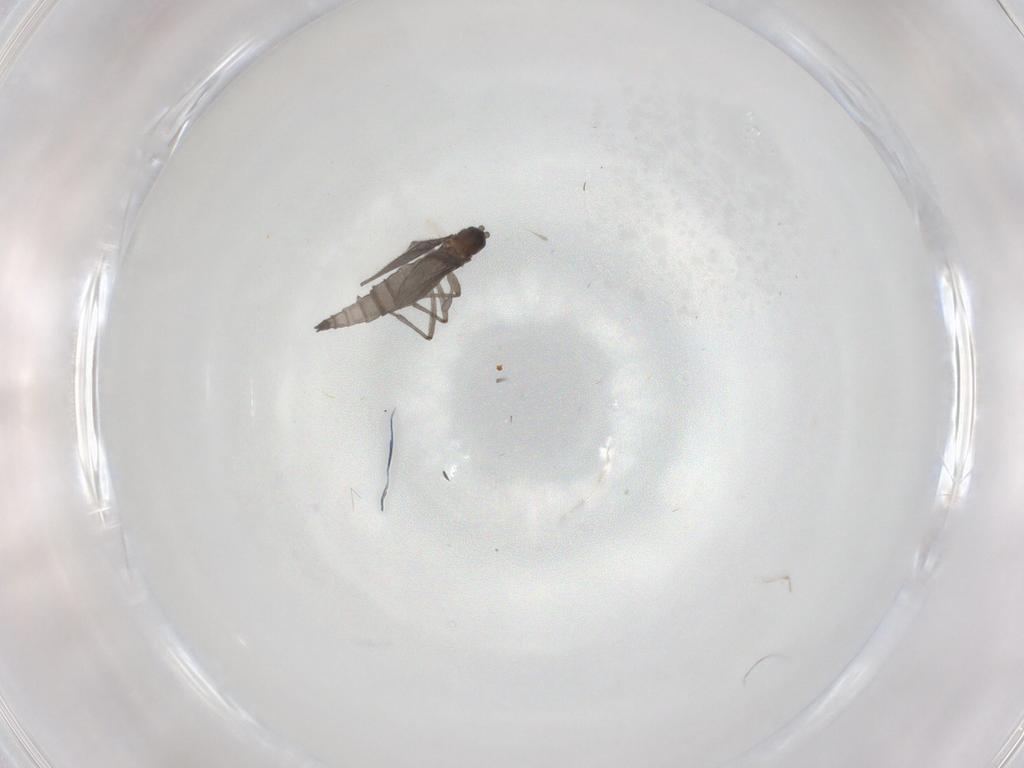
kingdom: Animalia
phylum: Arthropoda
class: Insecta
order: Diptera
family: Sciaridae
